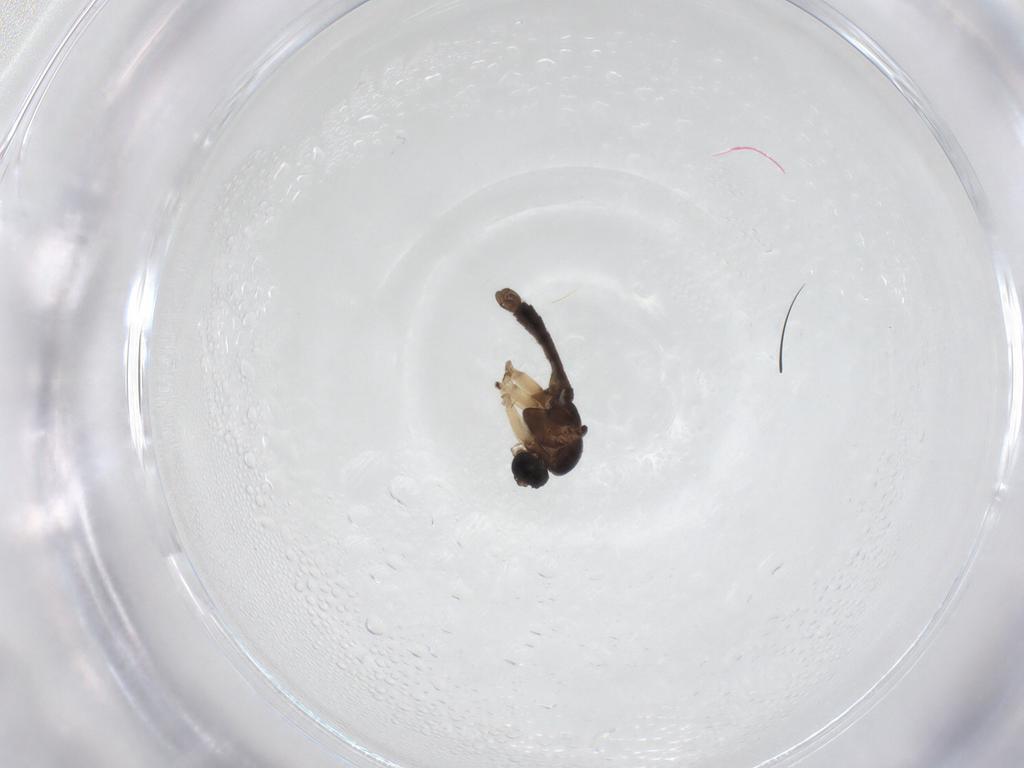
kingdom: Animalia
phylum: Arthropoda
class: Insecta
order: Diptera
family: Sciaridae
